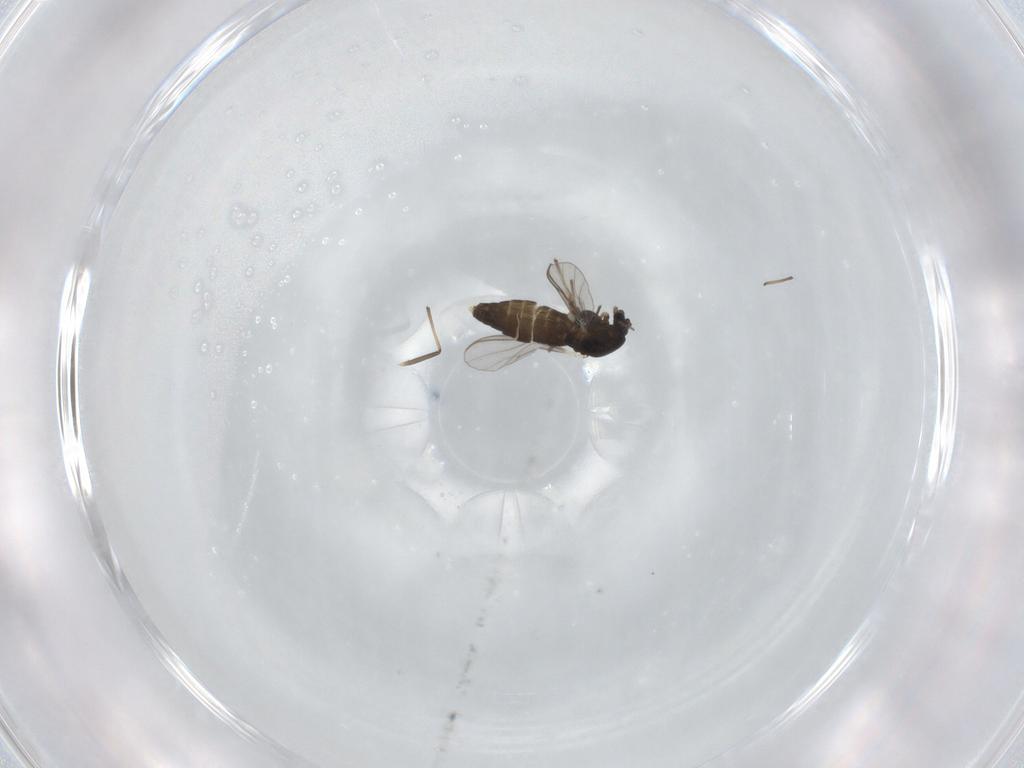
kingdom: Animalia
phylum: Arthropoda
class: Insecta
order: Diptera
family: Chironomidae
